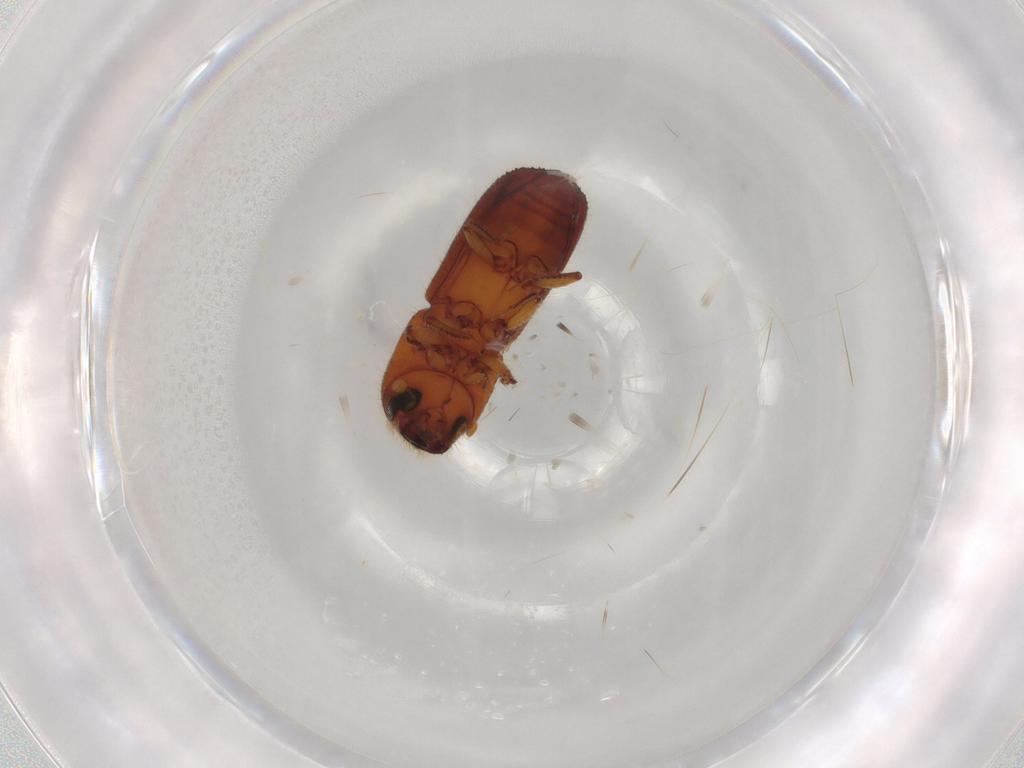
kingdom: Animalia
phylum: Arthropoda
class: Insecta
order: Coleoptera
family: Curculionidae
